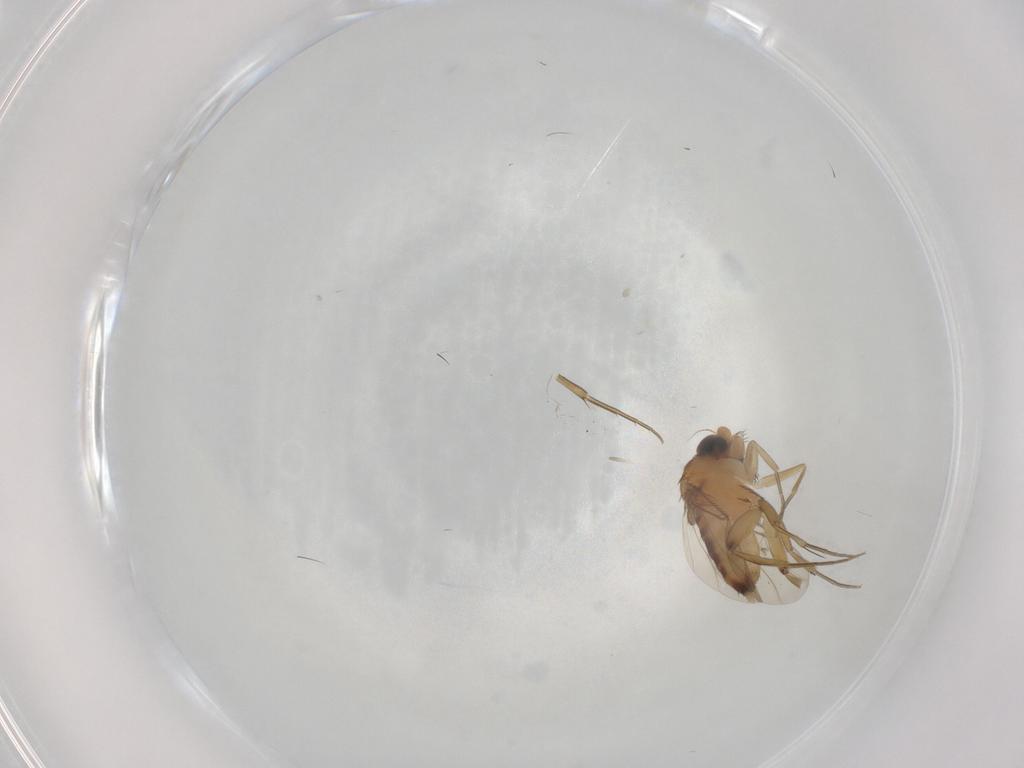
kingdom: Animalia
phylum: Arthropoda
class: Insecta
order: Diptera
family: Phoridae
